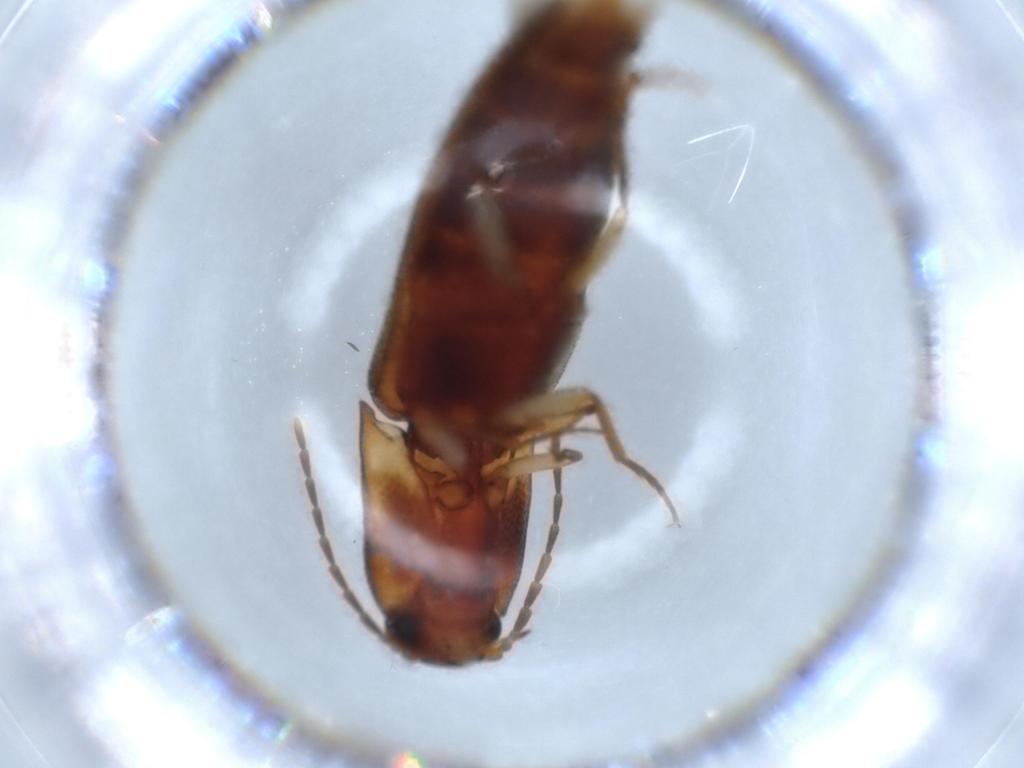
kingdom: Animalia
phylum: Arthropoda
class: Insecta
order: Coleoptera
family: Elateridae
